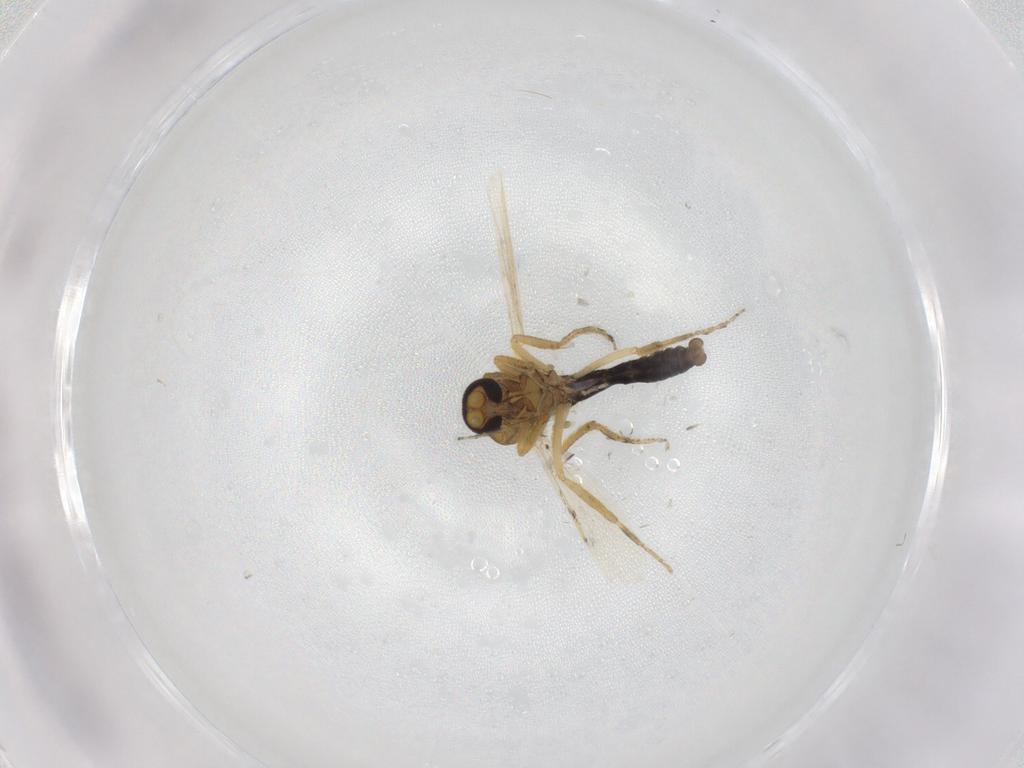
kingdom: Animalia
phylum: Arthropoda
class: Insecta
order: Diptera
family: Ceratopogonidae
